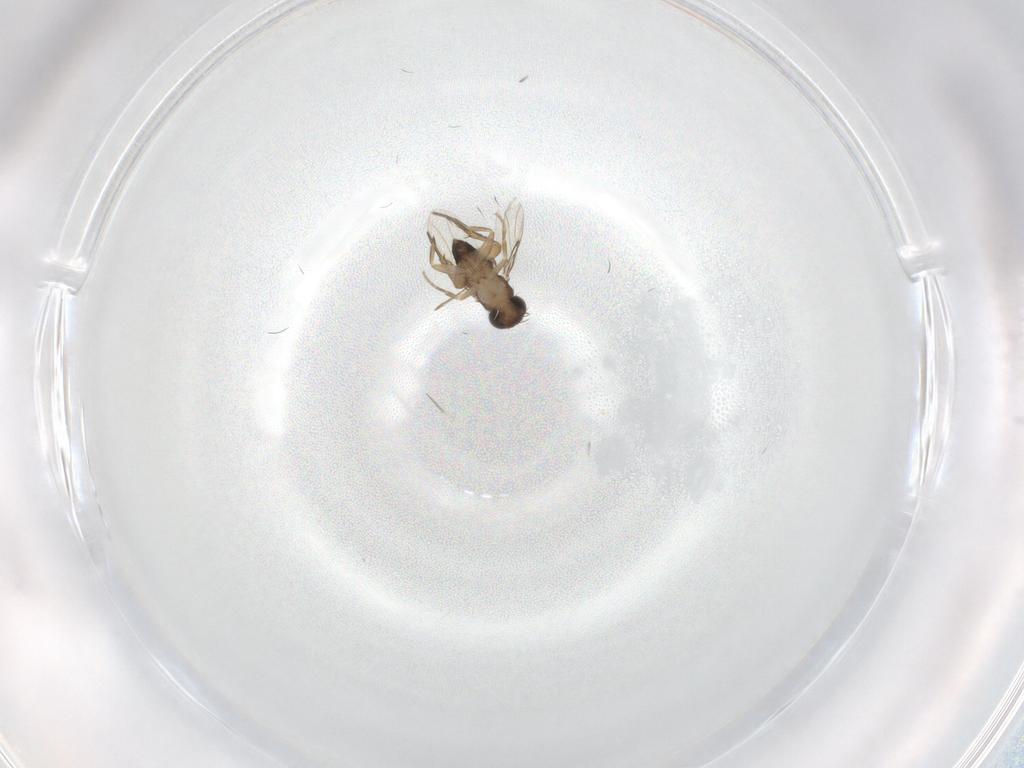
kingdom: Animalia
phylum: Arthropoda
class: Insecta
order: Diptera
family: Phoridae
